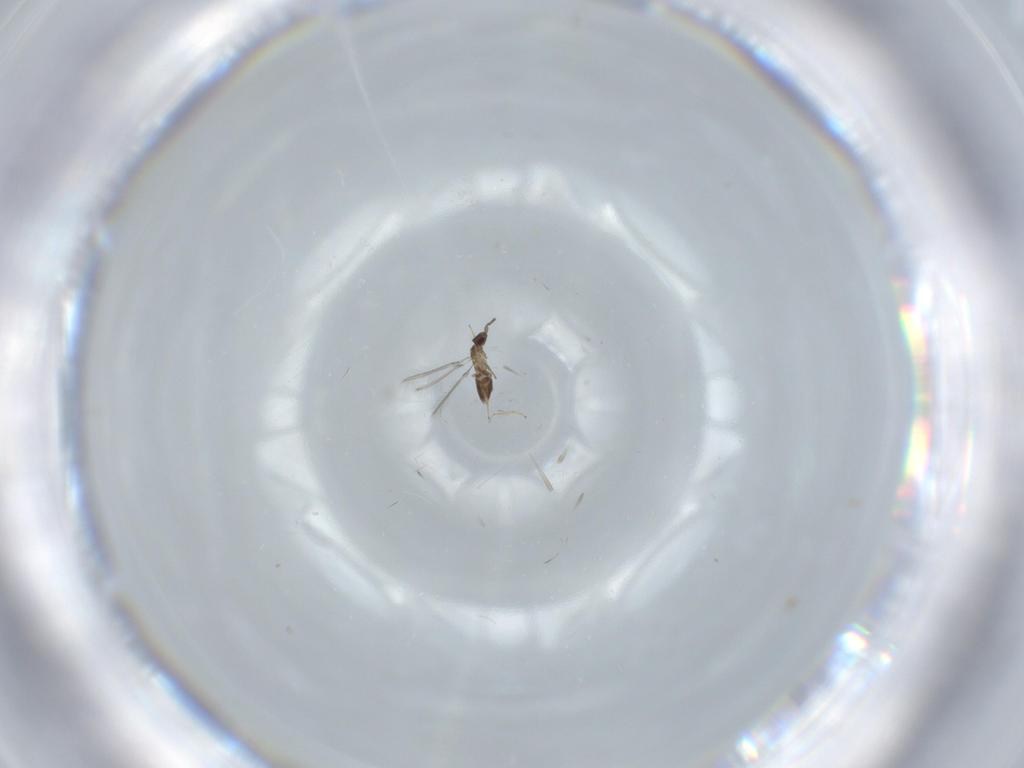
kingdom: Animalia
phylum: Arthropoda
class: Insecta
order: Hymenoptera
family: Mymaridae
